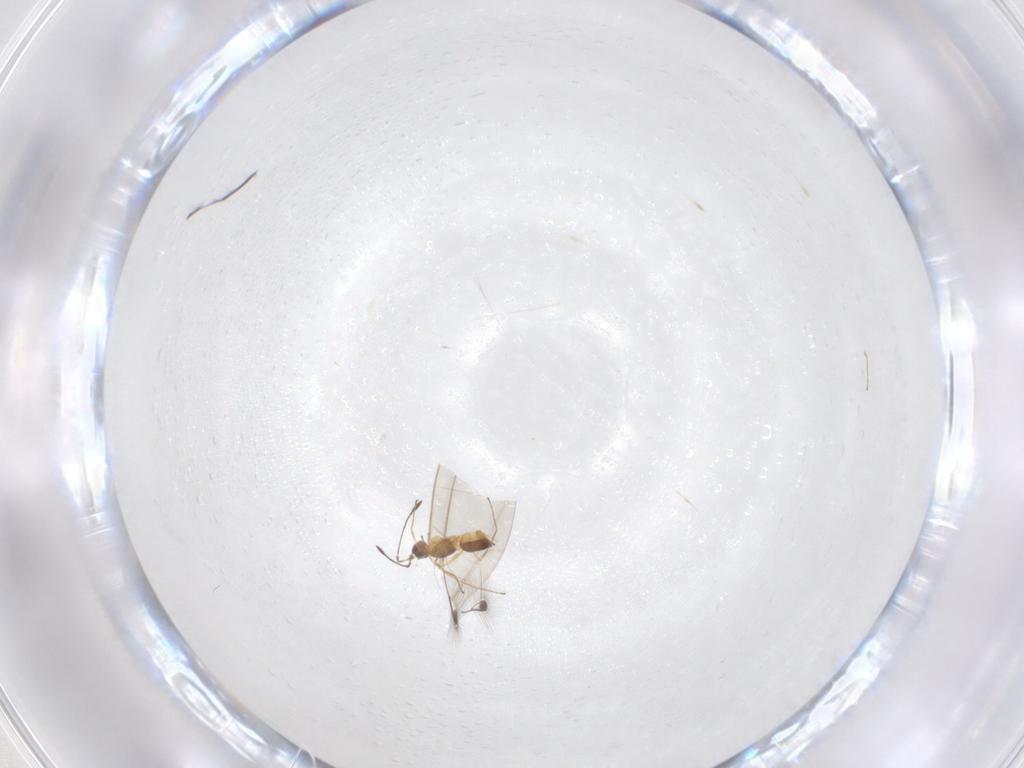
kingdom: Animalia
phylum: Arthropoda
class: Insecta
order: Hymenoptera
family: Mymaridae
